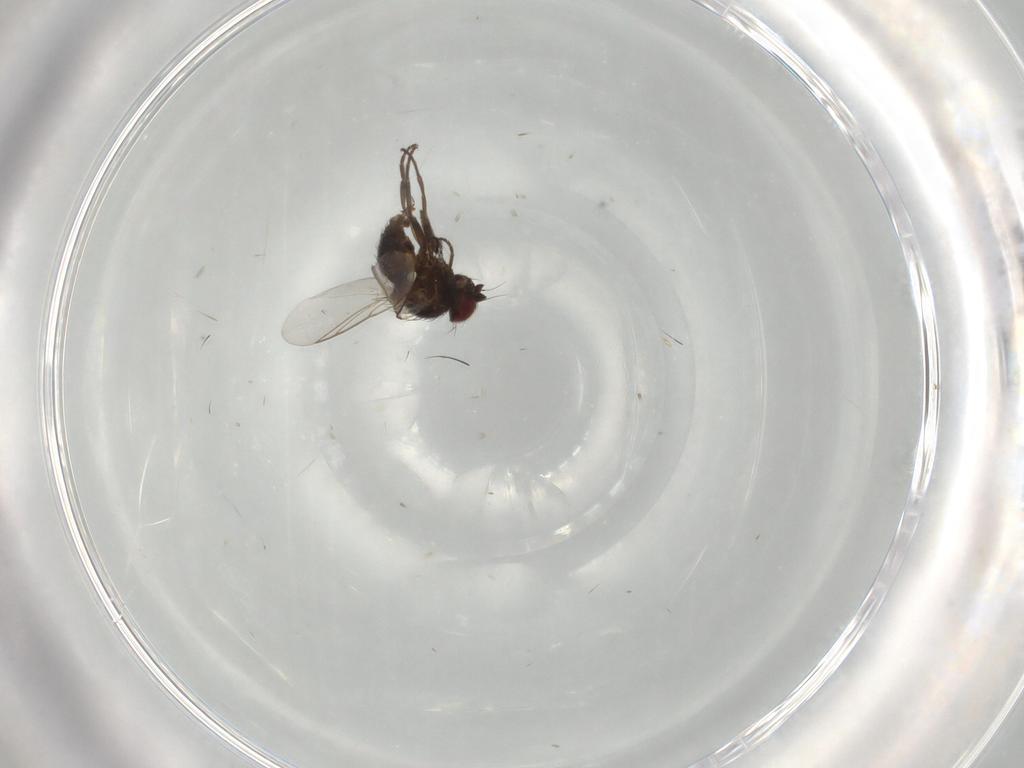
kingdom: Animalia
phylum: Arthropoda
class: Insecta
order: Diptera
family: Agromyzidae
